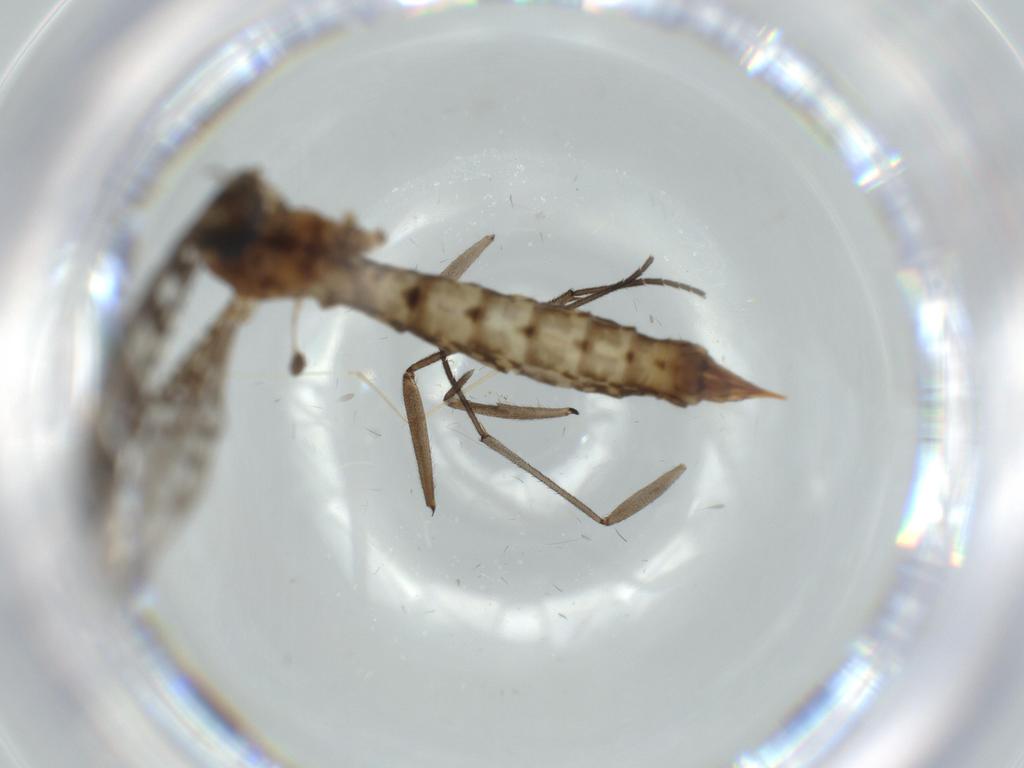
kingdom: Animalia
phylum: Arthropoda
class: Insecta
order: Diptera
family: Sciaridae
